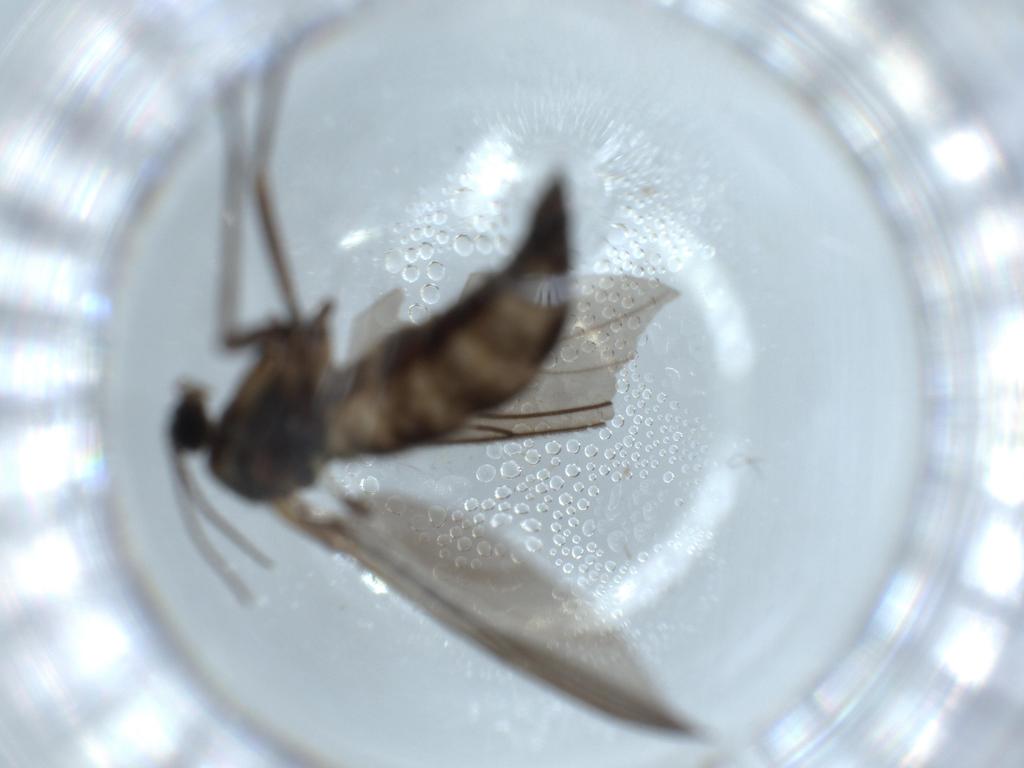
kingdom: Animalia
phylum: Arthropoda
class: Insecta
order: Diptera
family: Sciaridae
